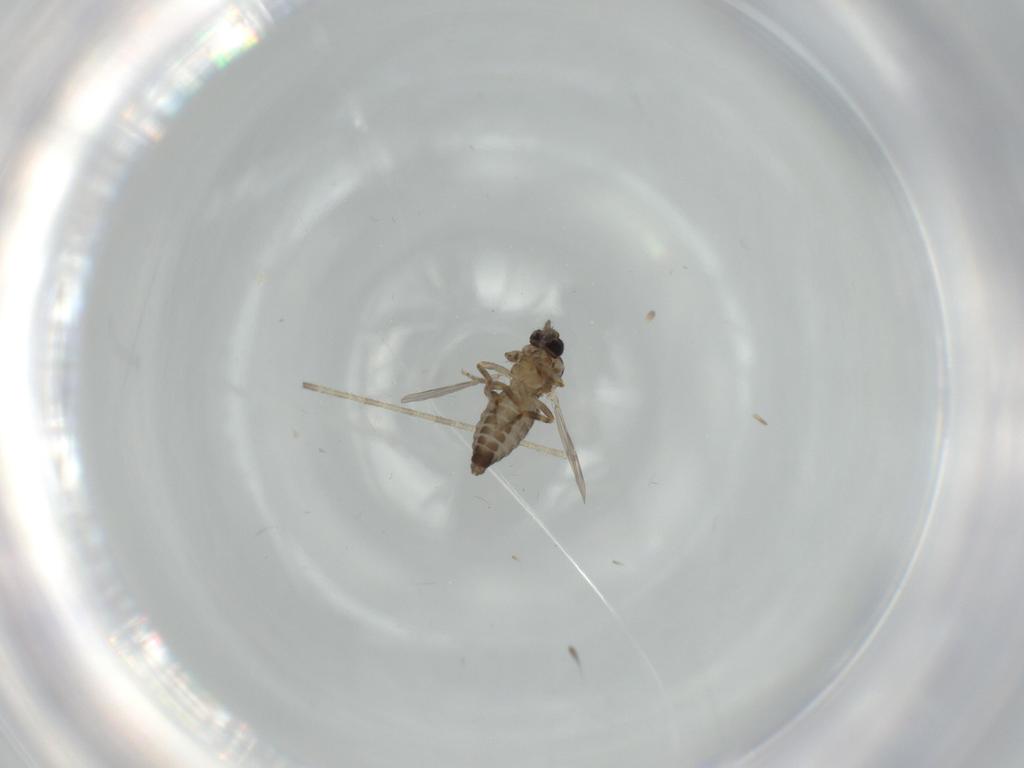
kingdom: Animalia
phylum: Arthropoda
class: Insecta
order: Diptera
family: Ceratopogonidae
